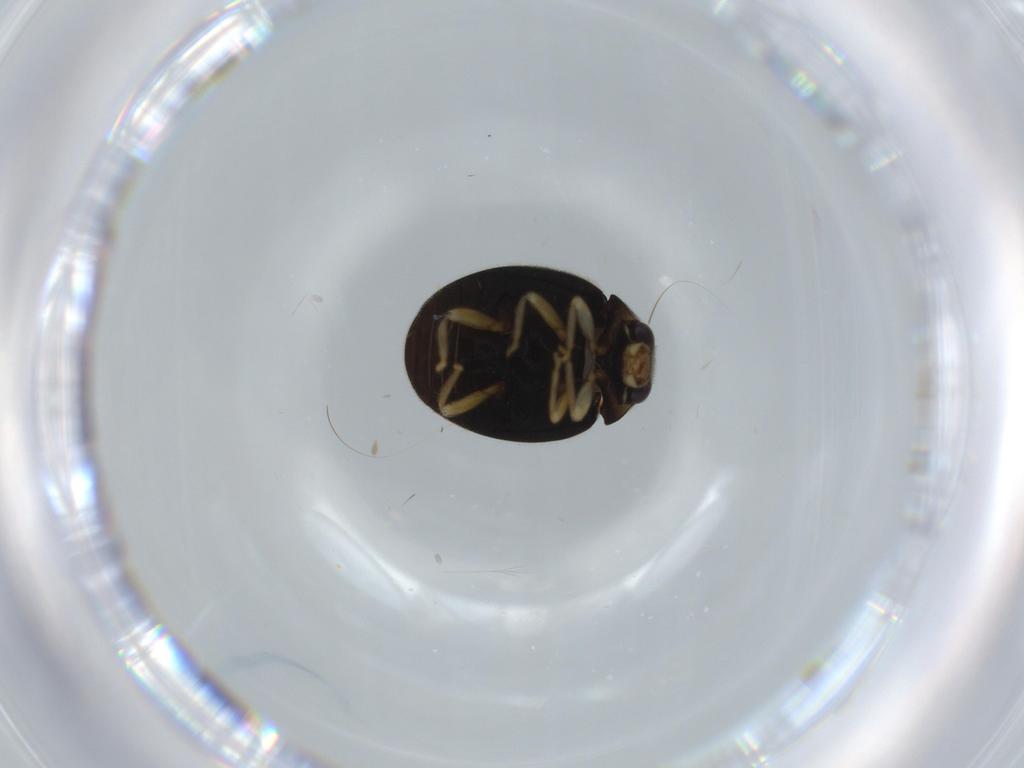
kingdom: Animalia
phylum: Arthropoda
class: Insecta
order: Coleoptera
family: Coccinellidae
